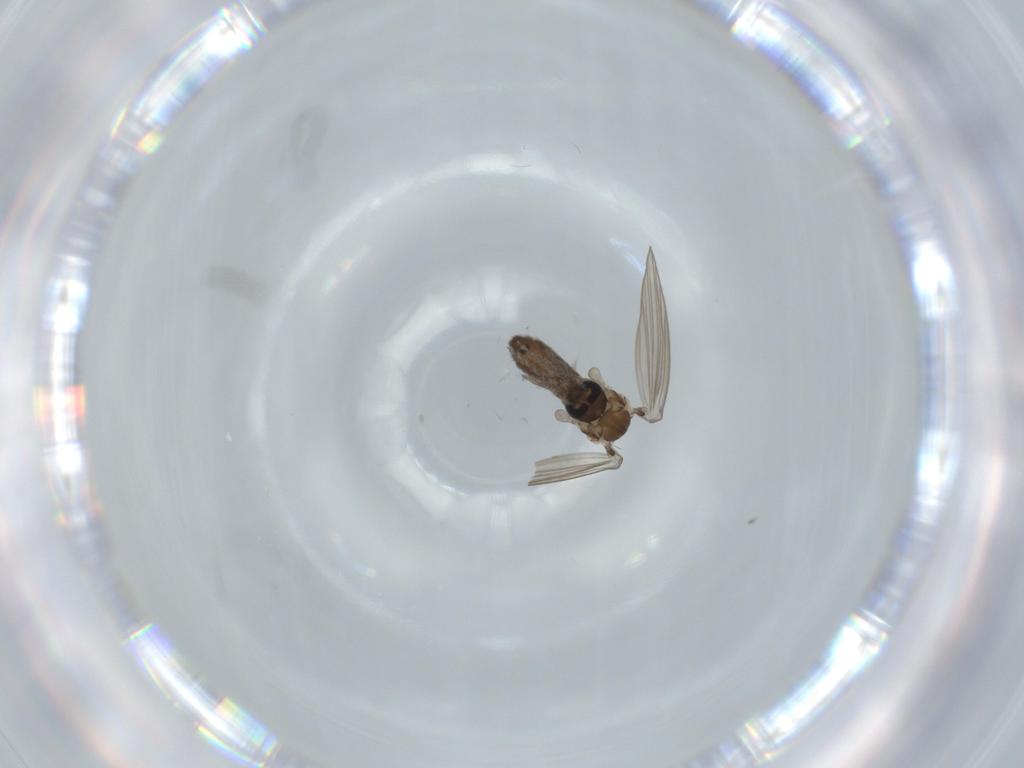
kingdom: Animalia
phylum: Arthropoda
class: Insecta
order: Diptera
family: Psychodidae
